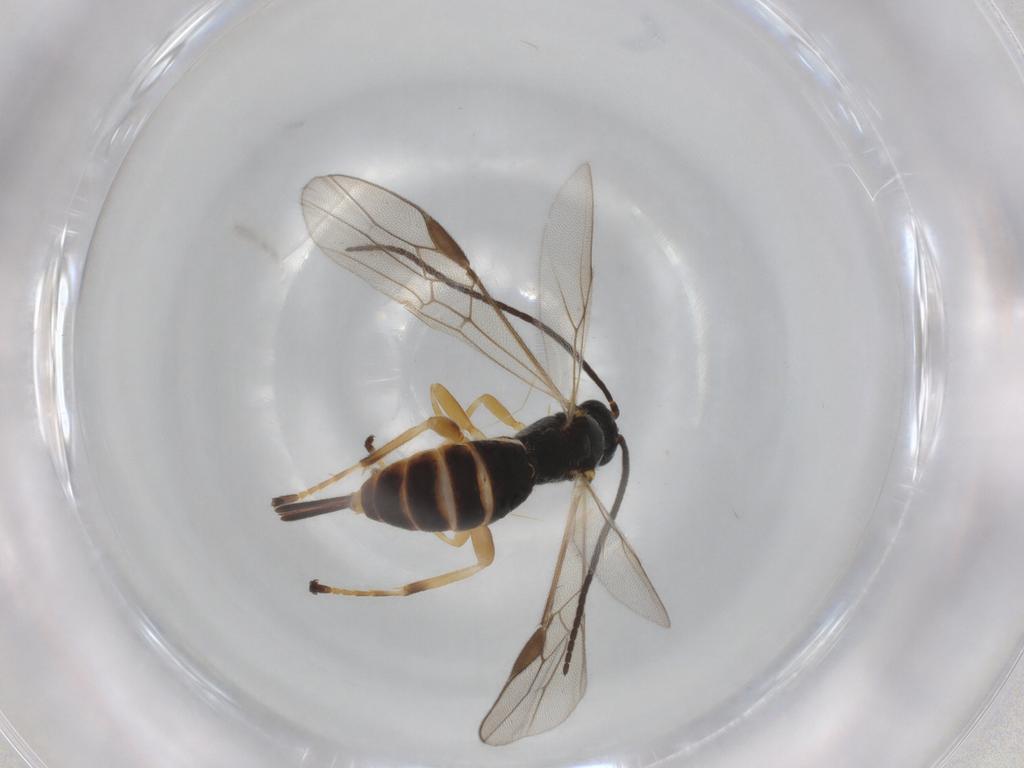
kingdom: Animalia
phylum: Arthropoda
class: Insecta
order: Hymenoptera
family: Braconidae
